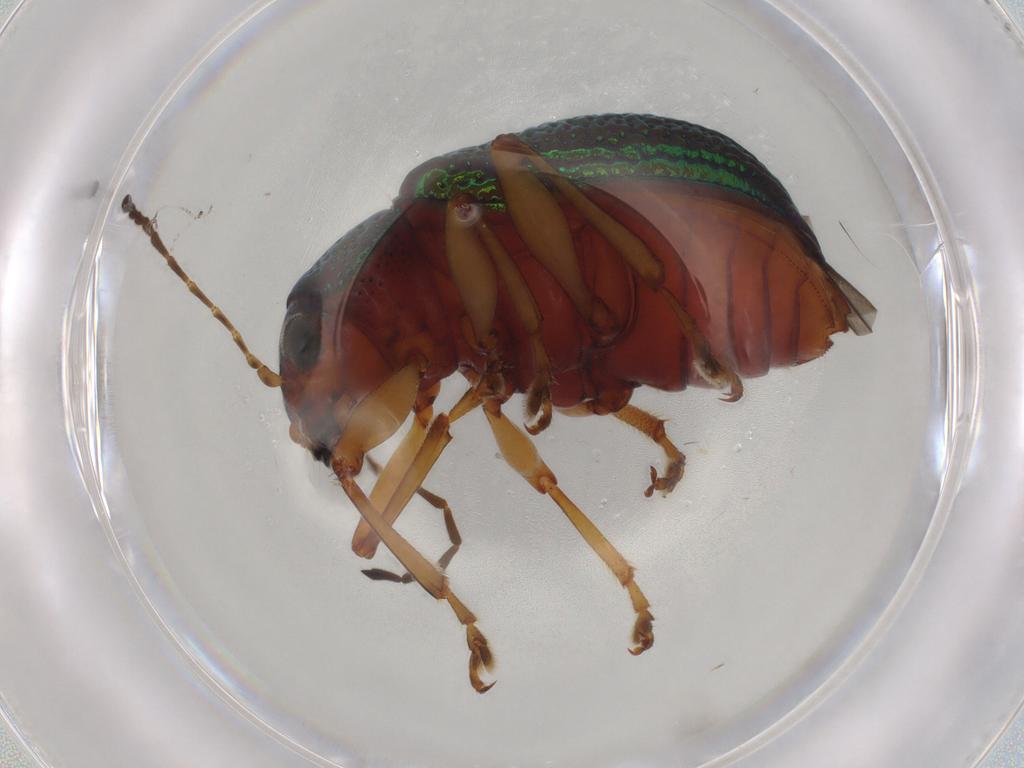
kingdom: Animalia
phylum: Arthropoda
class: Insecta
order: Coleoptera
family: Chrysomelidae
